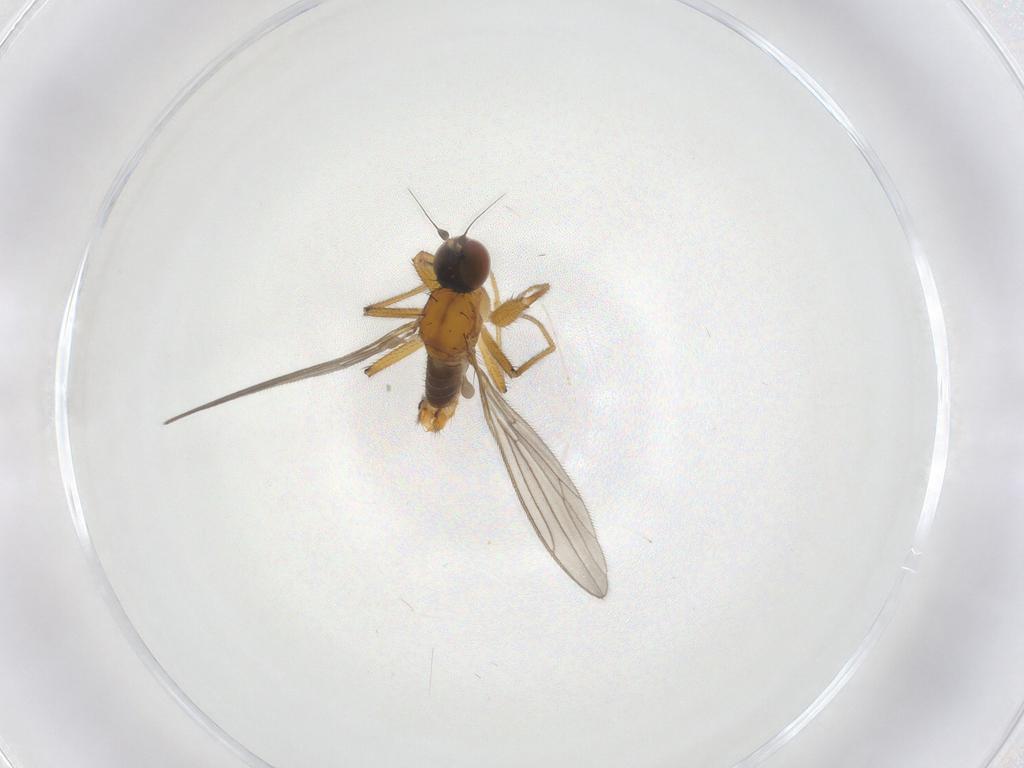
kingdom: Animalia
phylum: Arthropoda
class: Insecta
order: Diptera
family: Empididae
